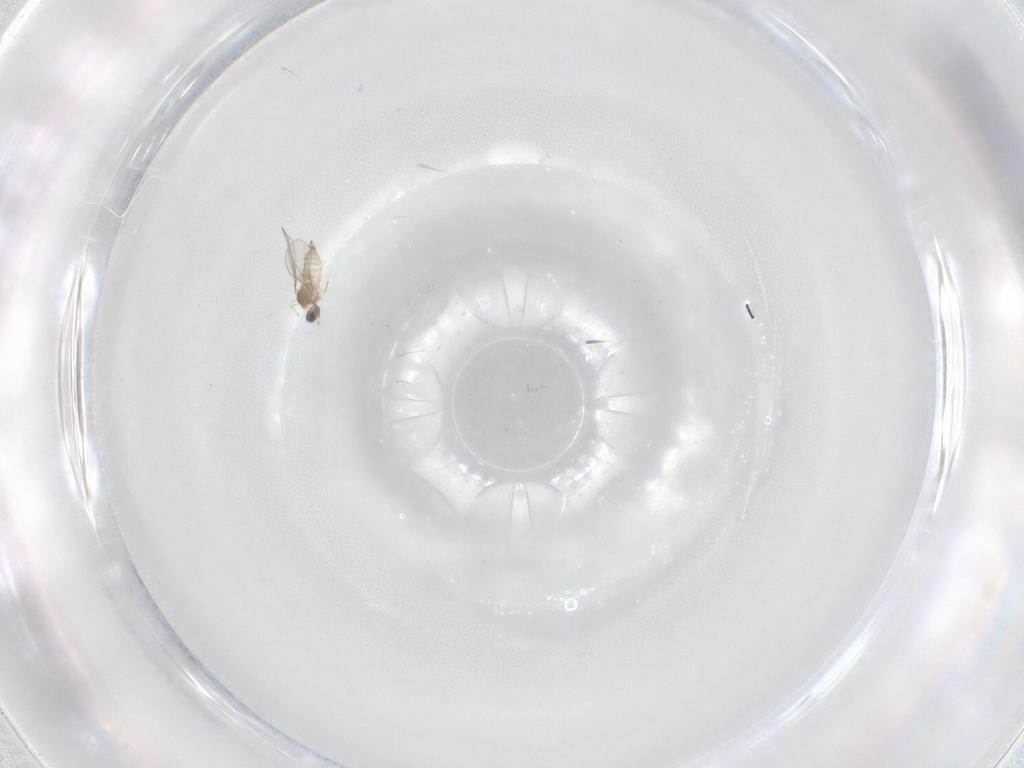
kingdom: Animalia
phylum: Arthropoda
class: Insecta
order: Diptera
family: Cecidomyiidae
